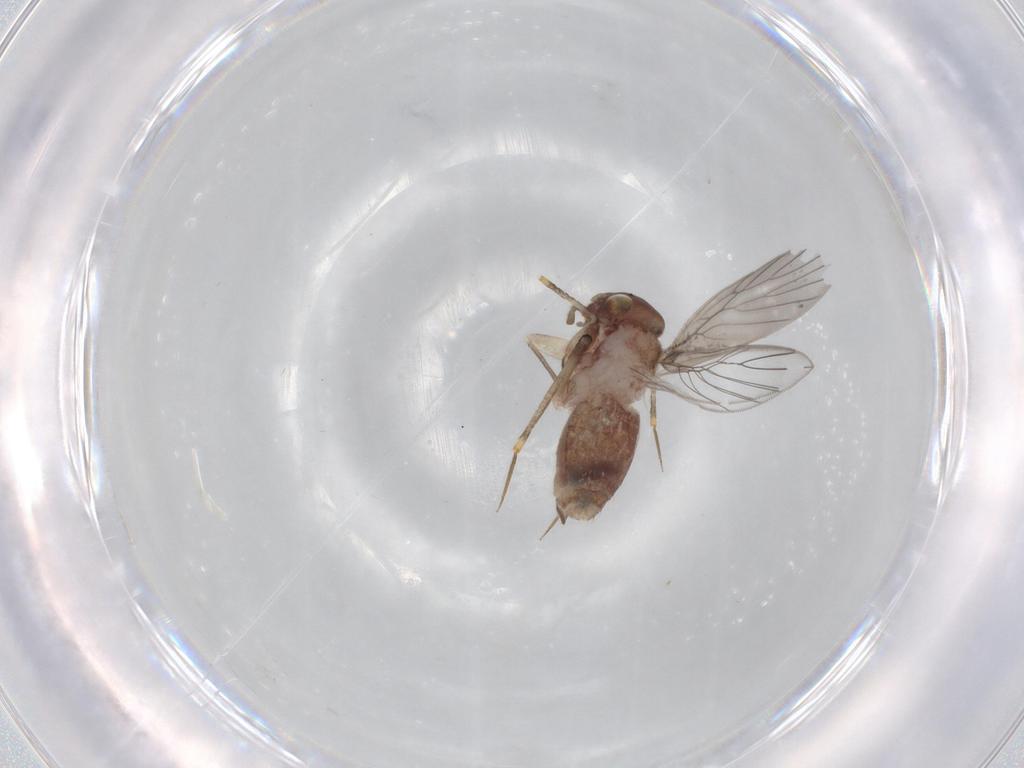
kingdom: Animalia
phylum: Arthropoda
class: Insecta
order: Psocodea
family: Lepidopsocidae
